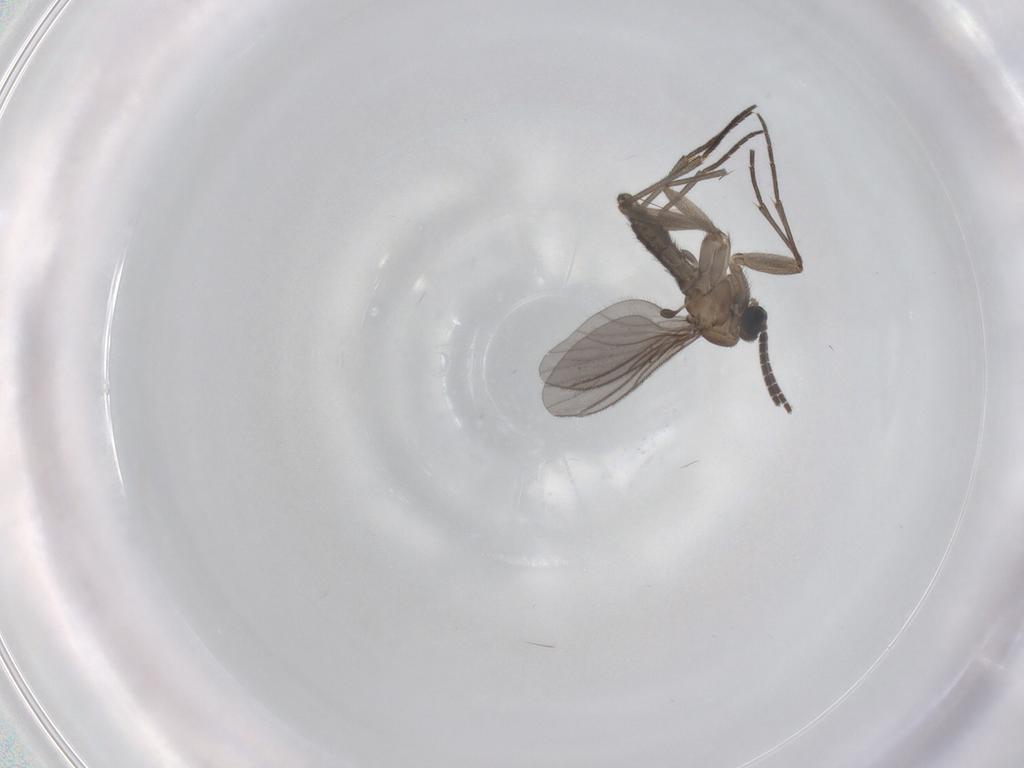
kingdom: Animalia
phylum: Arthropoda
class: Insecta
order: Diptera
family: Sciaridae
